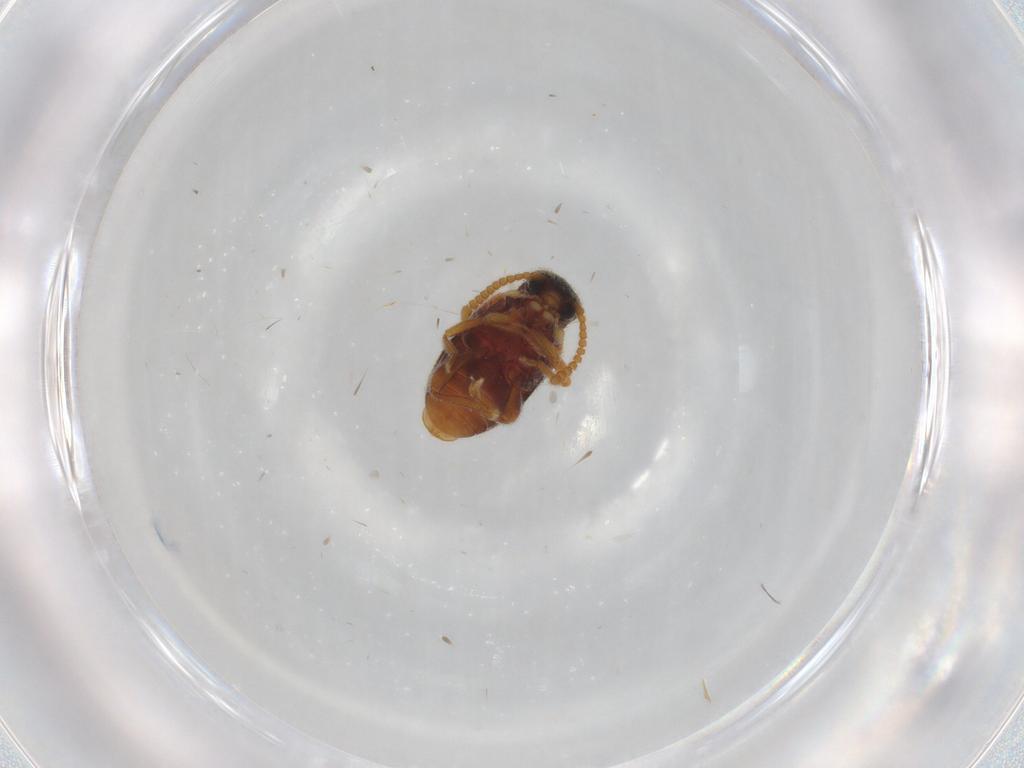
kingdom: Animalia
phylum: Arthropoda
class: Insecta
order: Coleoptera
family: Aderidae
